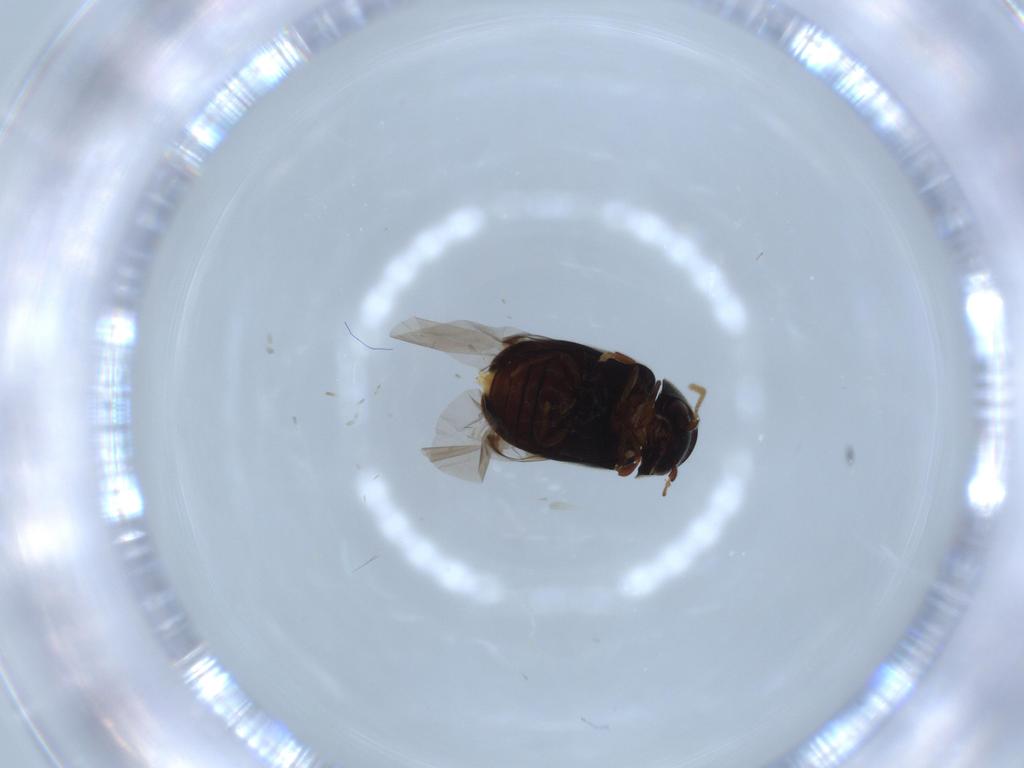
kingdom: Animalia
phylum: Arthropoda
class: Insecta
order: Coleoptera
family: Ptinidae
